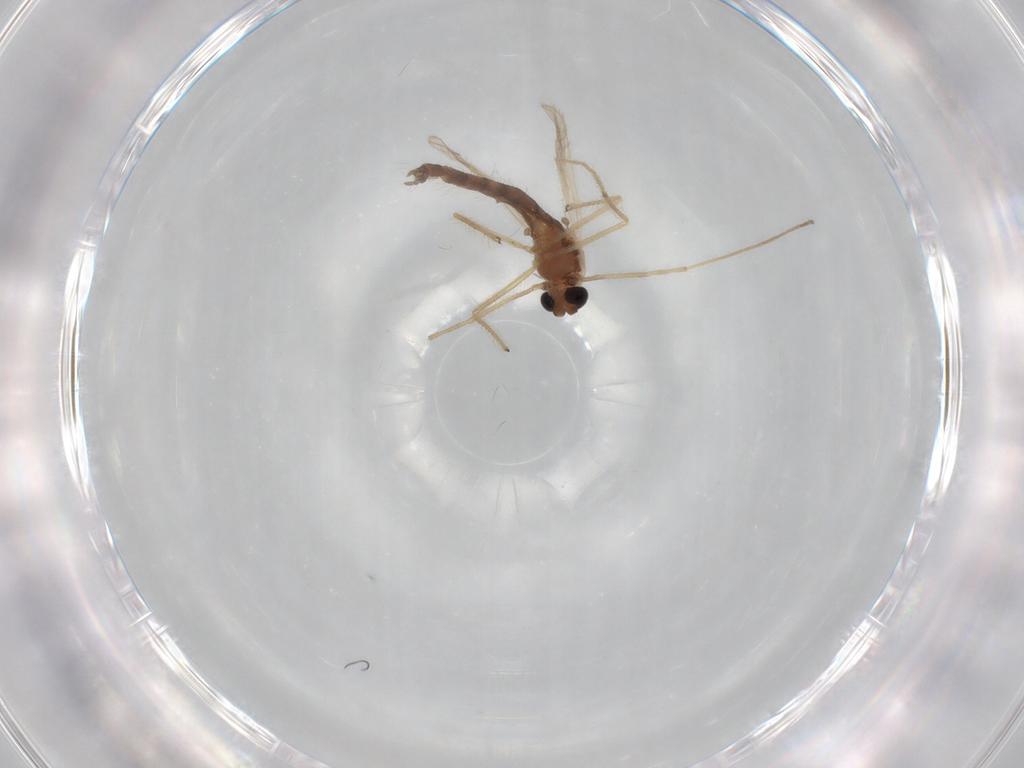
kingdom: Animalia
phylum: Arthropoda
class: Insecta
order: Diptera
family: Chironomidae
